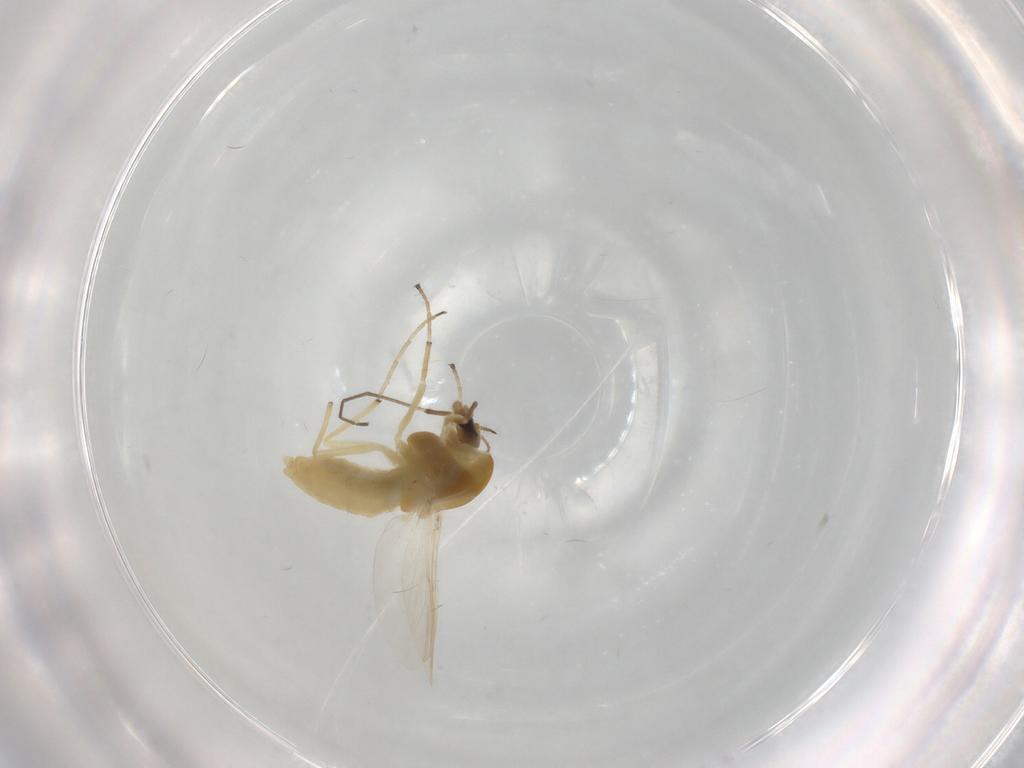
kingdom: Animalia
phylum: Arthropoda
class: Insecta
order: Diptera
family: Chironomidae
